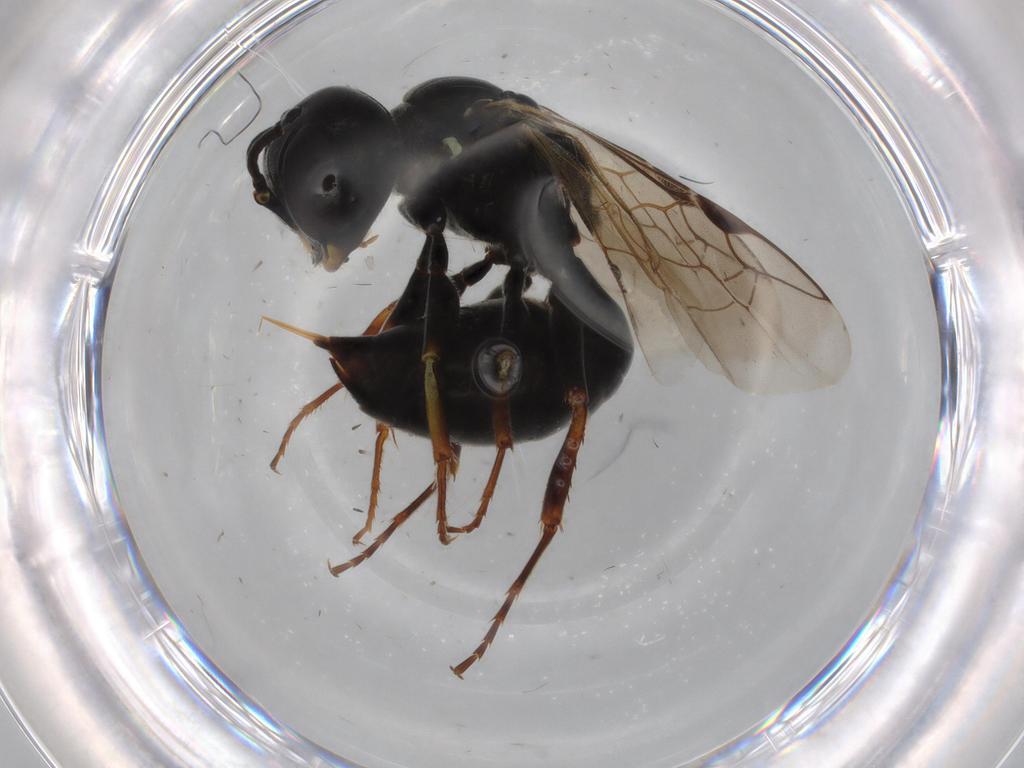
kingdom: Animalia
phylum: Arthropoda
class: Insecta
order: Hymenoptera
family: Crabronidae
